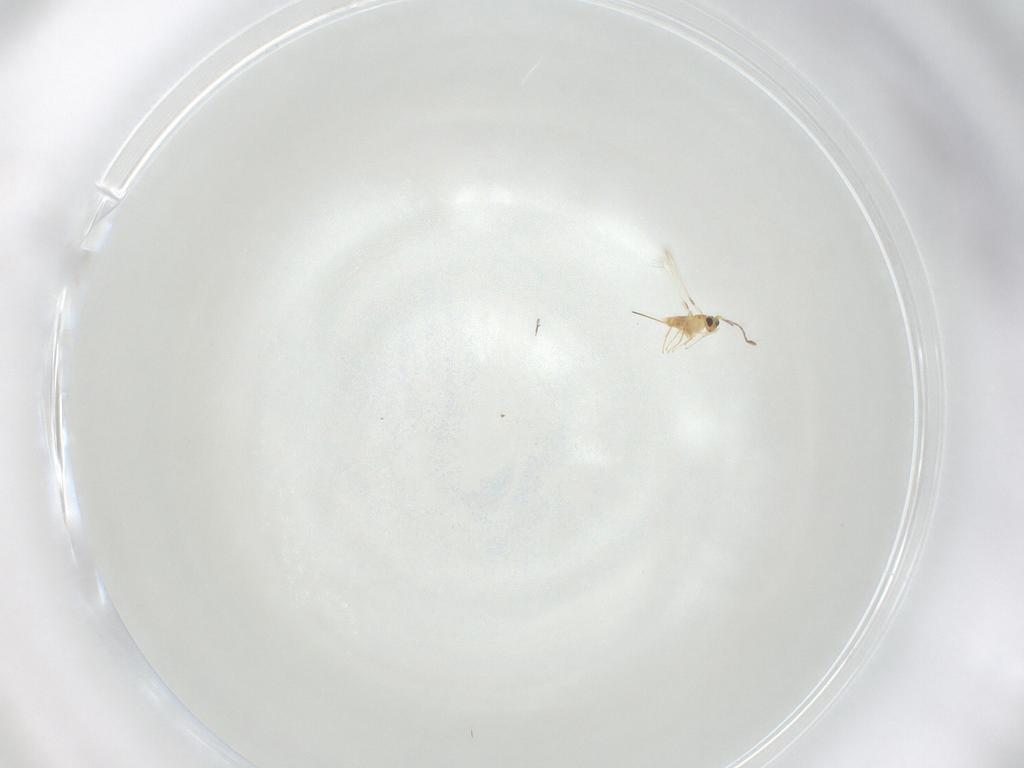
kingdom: Animalia
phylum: Arthropoda
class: Insecta
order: Hymenoptera
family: Mymaridae
